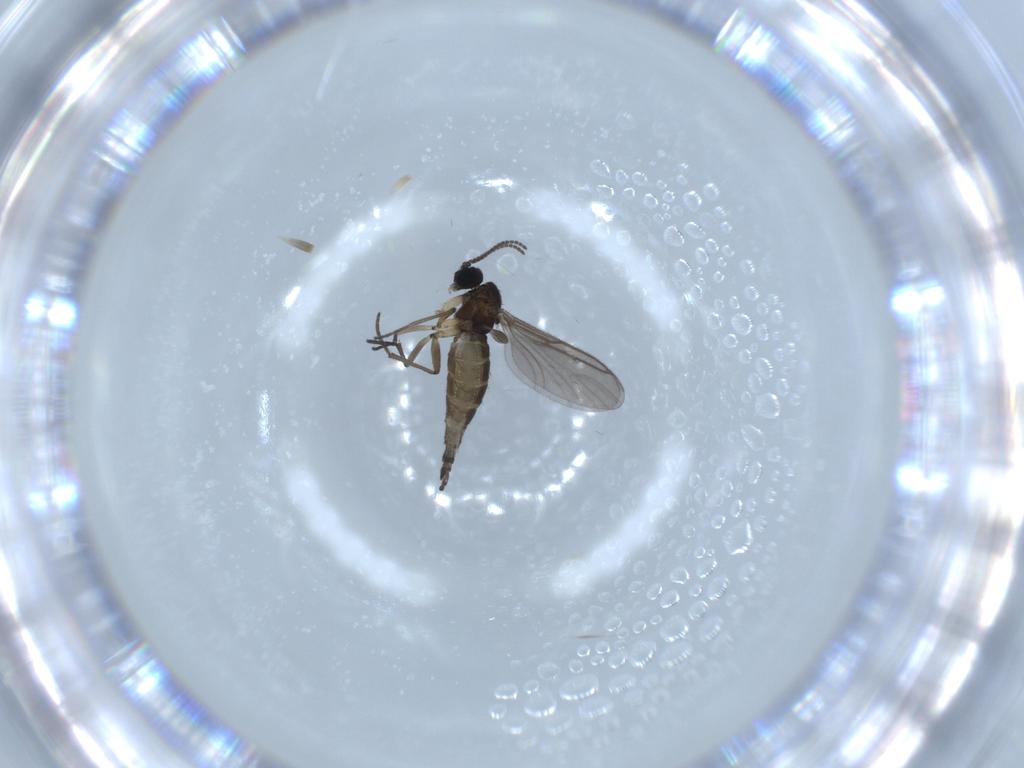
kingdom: Animalia
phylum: Arthropoda
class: Insecta
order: Diptera
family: Sciaridae
